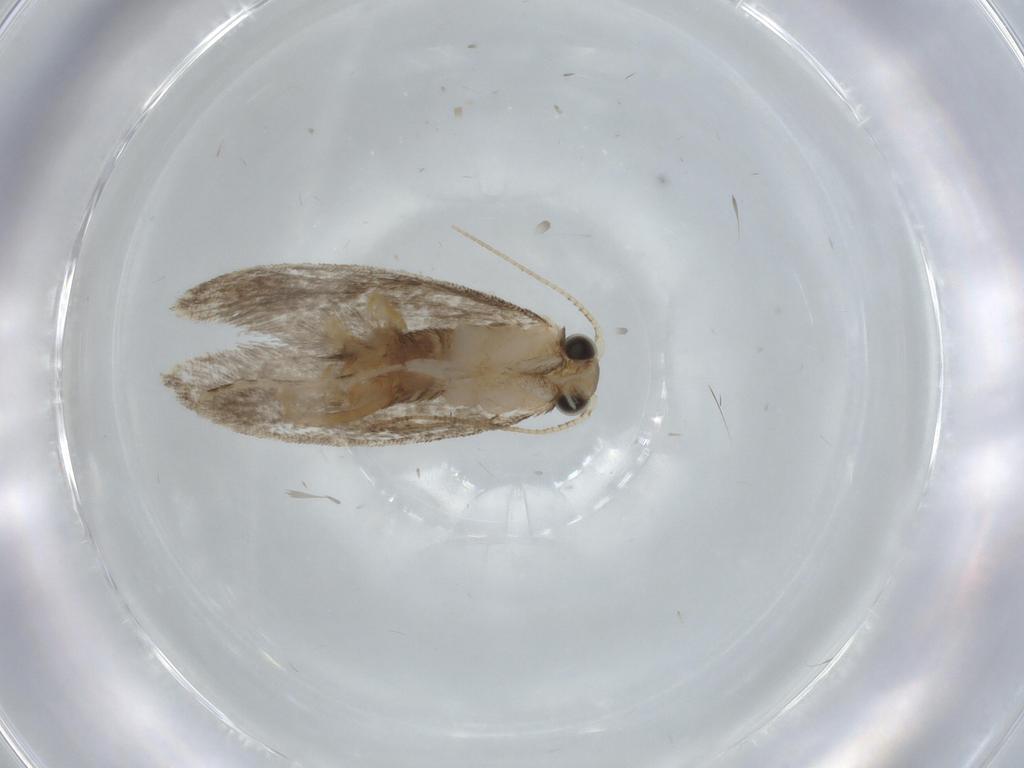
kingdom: Animalia
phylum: Arthropoda
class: Insecta
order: Lepidoptera
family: Tineidae
